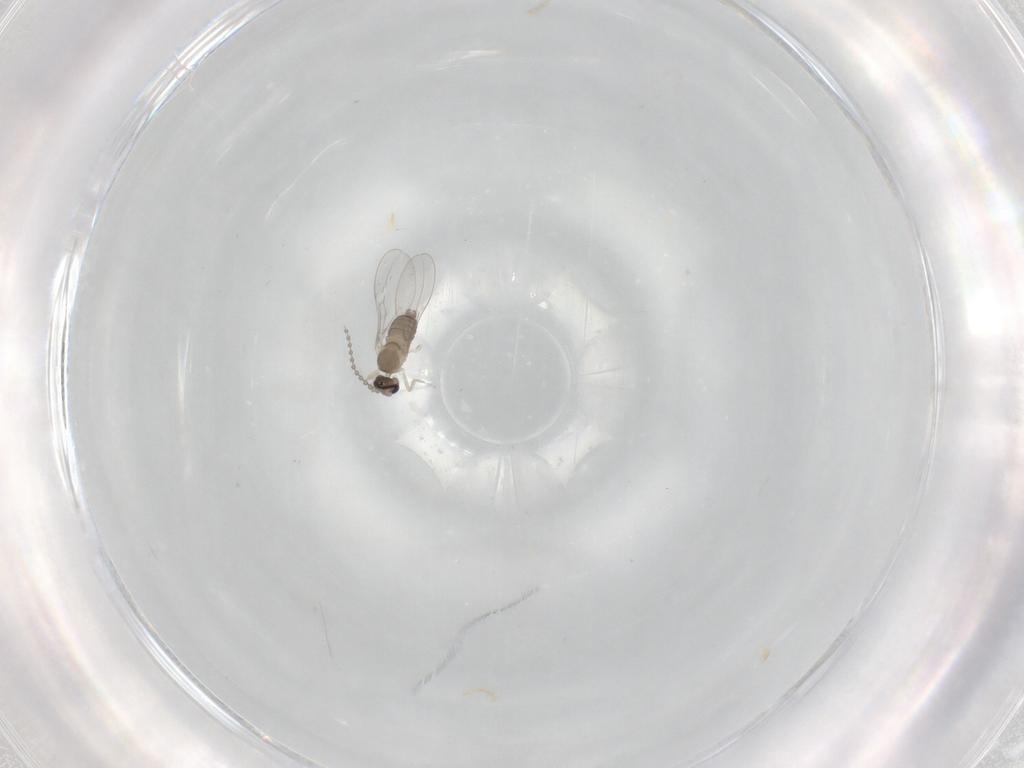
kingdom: Animalia
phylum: Arthropoda
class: Insecta
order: Diptera
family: Cecidomyiidae
